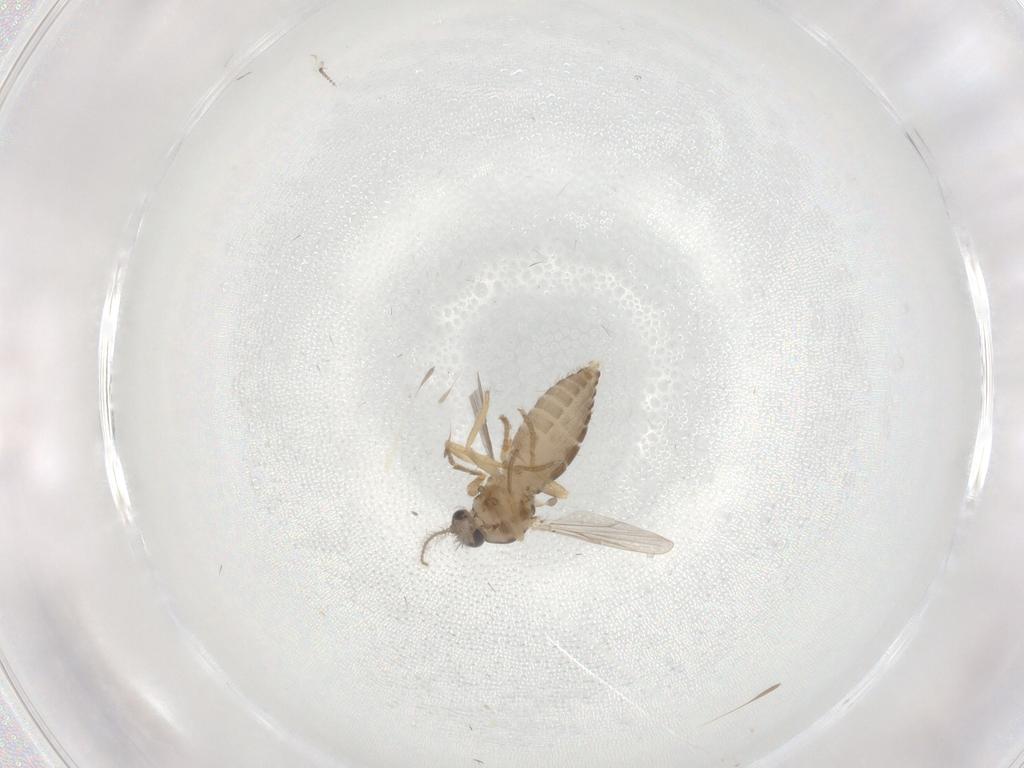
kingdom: Animalia
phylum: Arthropoda
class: Insecta
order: Diptera
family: Ceratopogonidae
